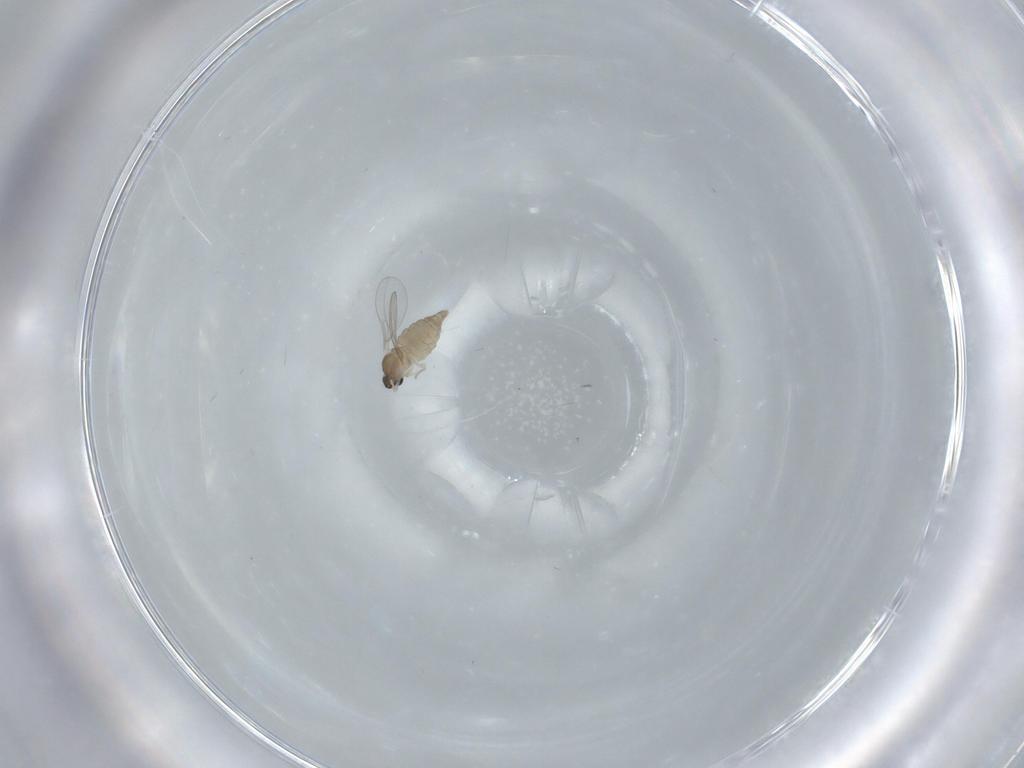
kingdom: Animalia
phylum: Arthropoda
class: Insecta
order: Diptera
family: Cecidomyiidae
